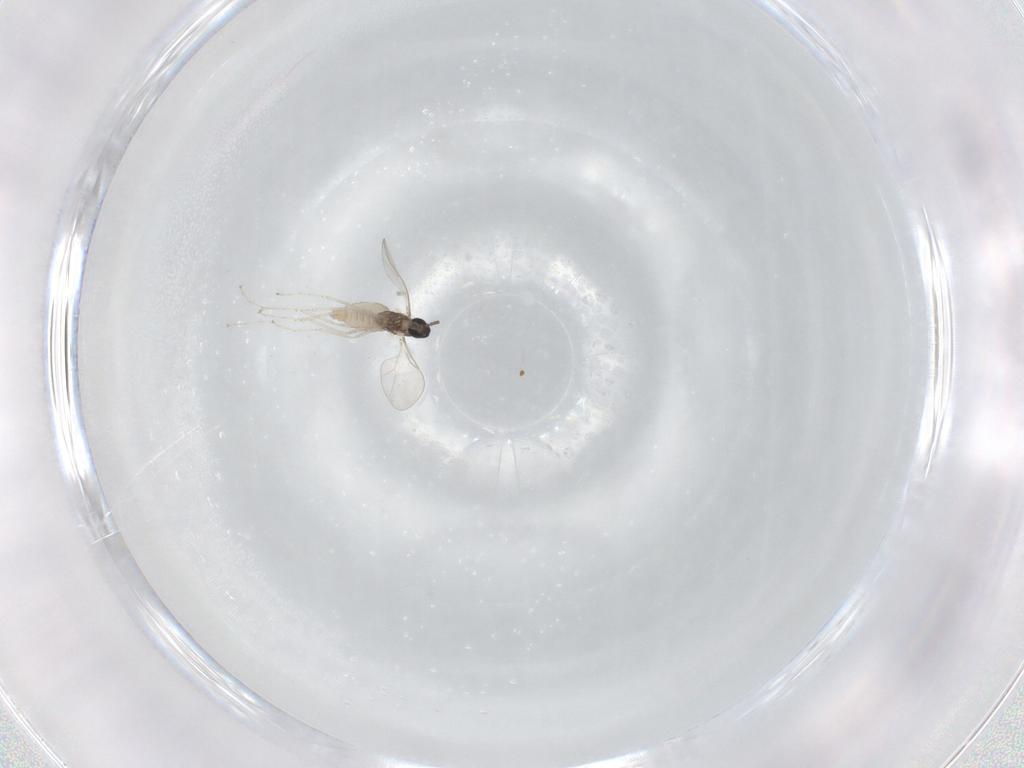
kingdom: Animalia
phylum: Arthropoda
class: Insecta
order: Diptera
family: Cecidomyiidae
